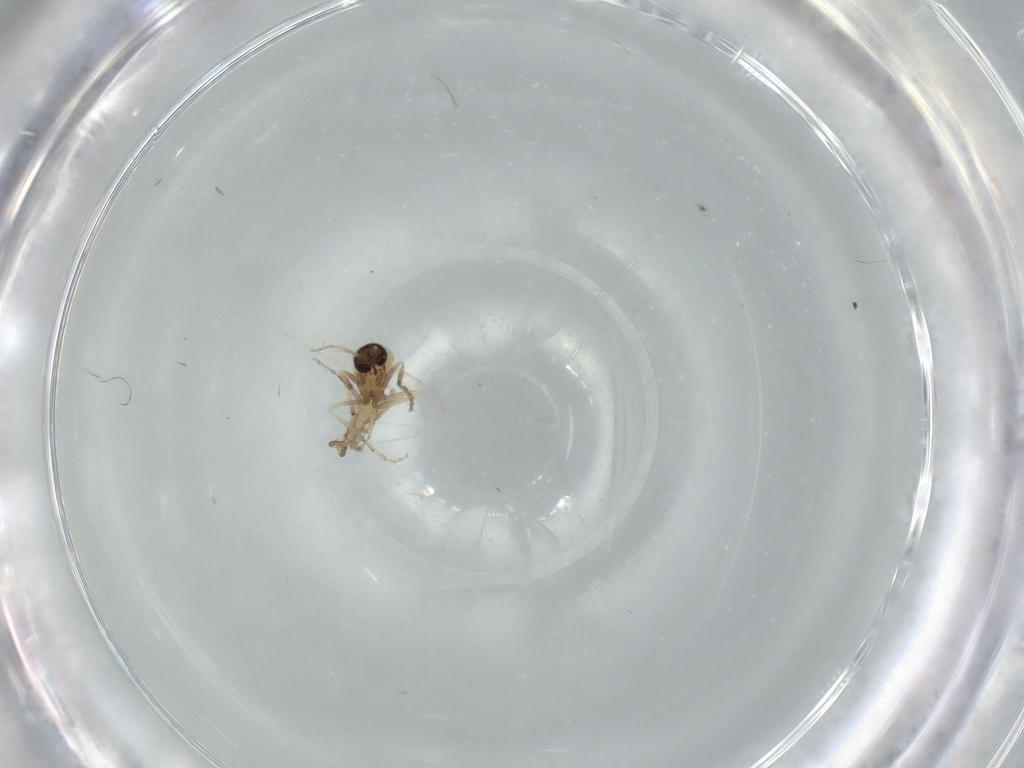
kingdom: Animalia
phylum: Arthropoda
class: Insecta
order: Diptera
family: Ceratopogonidae
